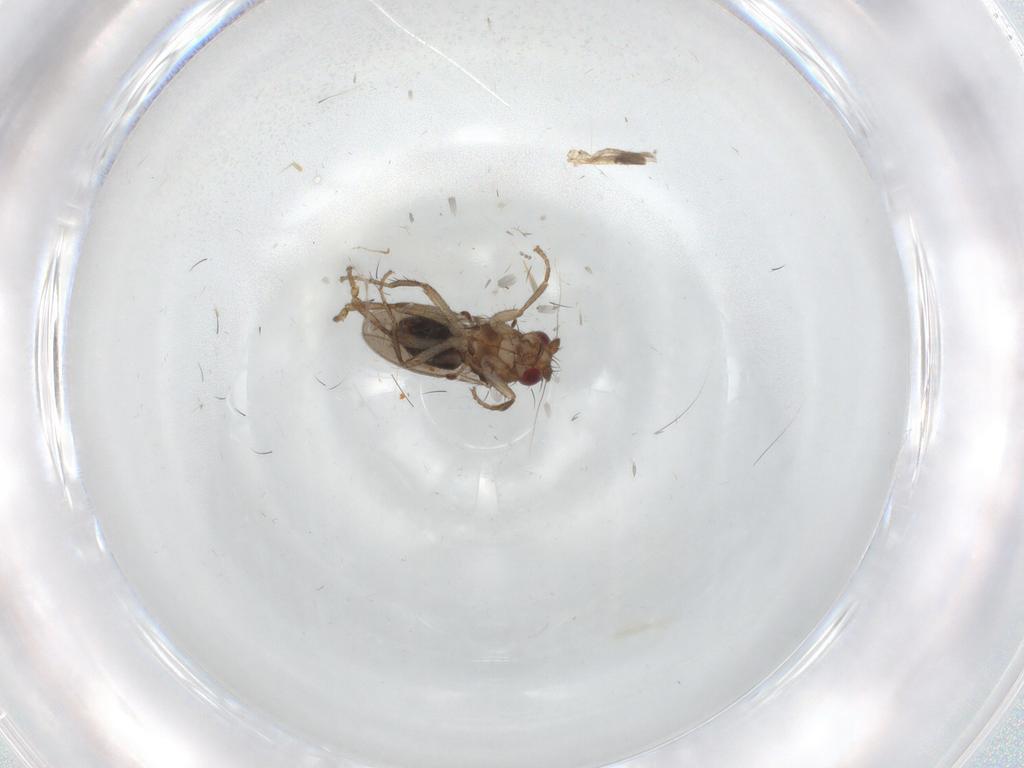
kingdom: Animalia
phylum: Arthropoda
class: Insecta
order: Diptera
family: Sphaeroceridae
